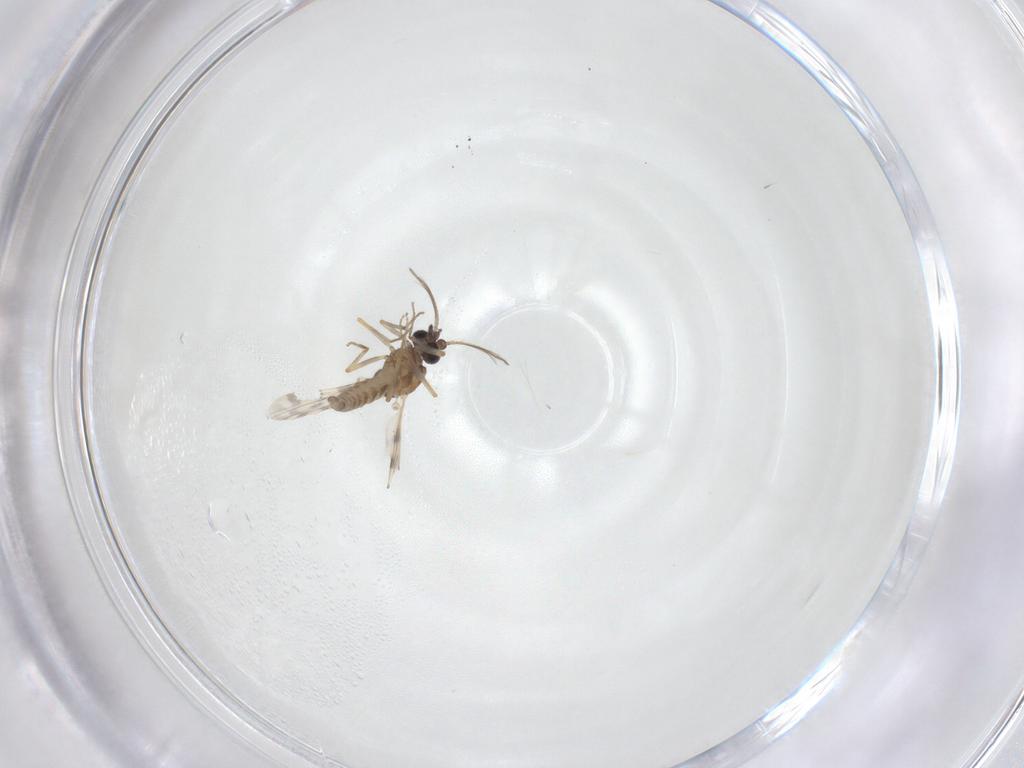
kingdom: Animalia
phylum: Arthropoda
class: Insecta
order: Diptera
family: Ceratopogonidae
